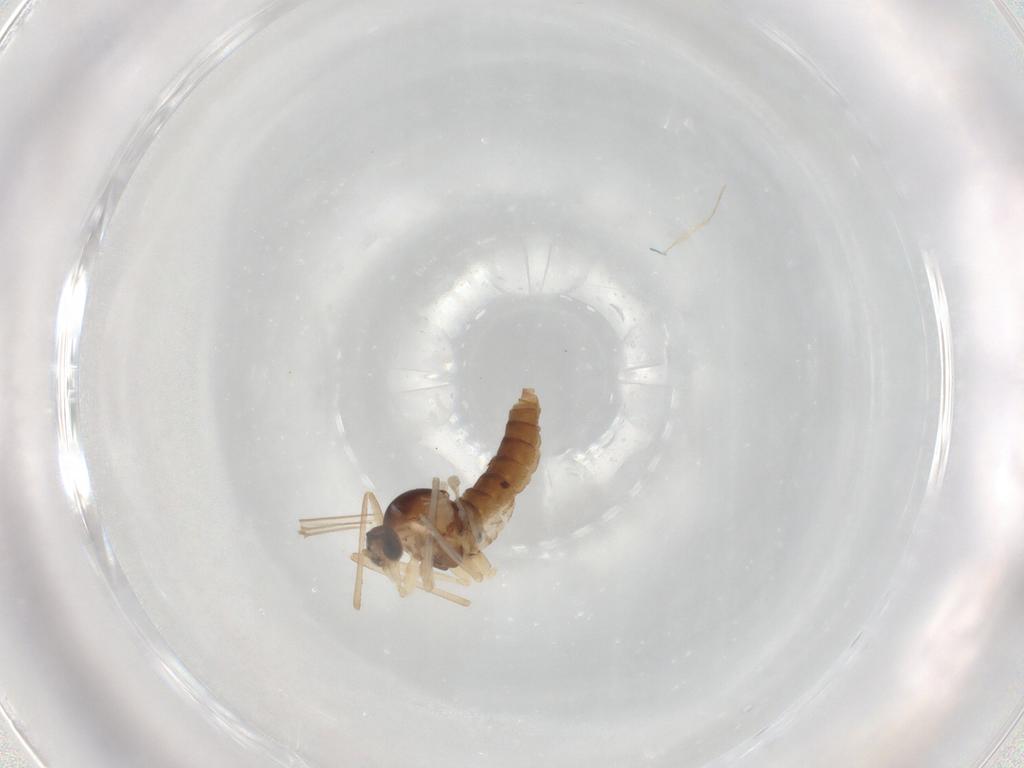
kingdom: Animalia
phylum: Arthropoda
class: Insecta
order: Diptera
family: Cecidomyiidae
